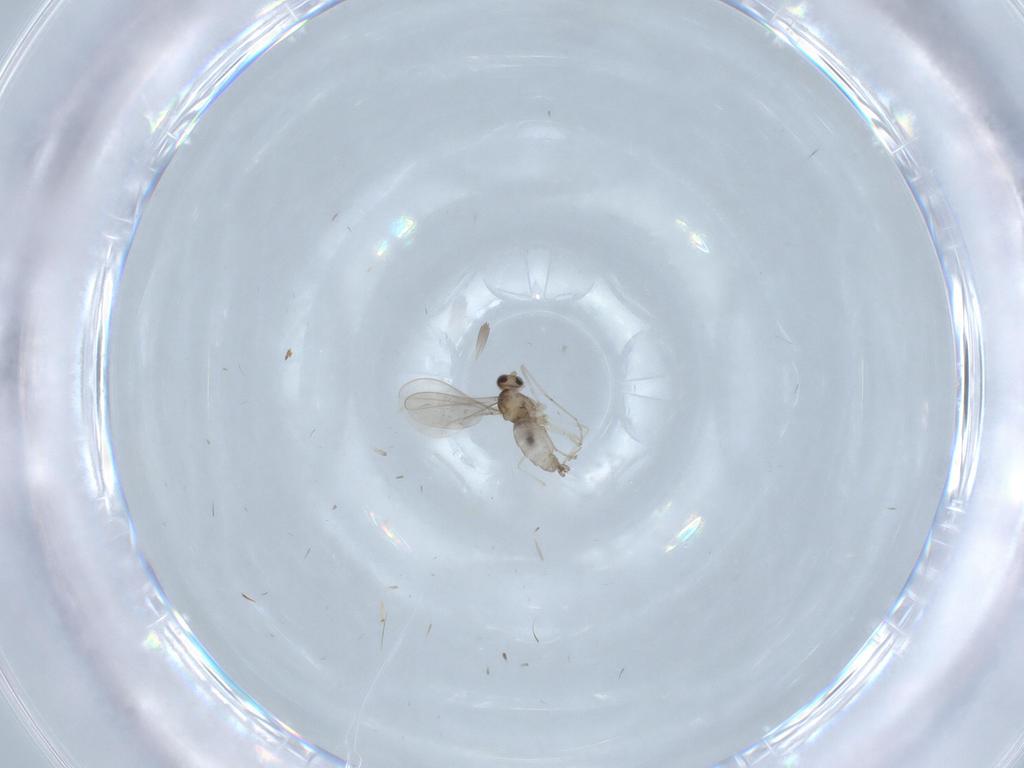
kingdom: Animalia
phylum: Arthropoda
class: Insecta
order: Diptera
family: Cecidomyiidae
